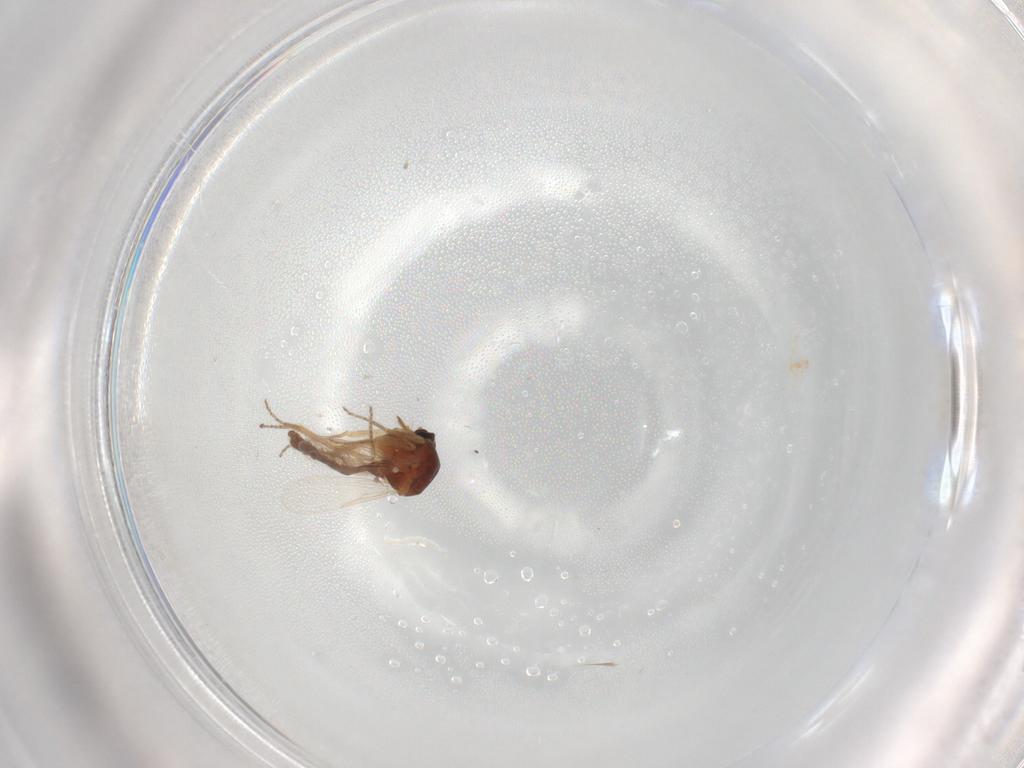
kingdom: Animalia
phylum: Arthropoda
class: Insecta
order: Diptera
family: Ceratopogonidae
